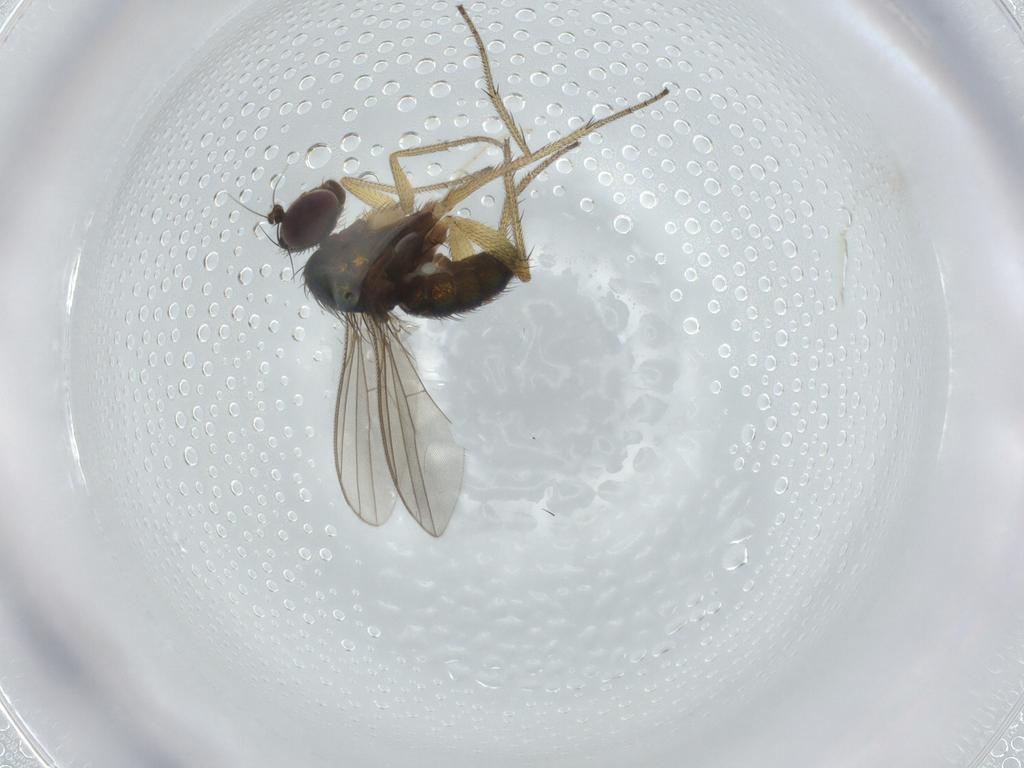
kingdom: Animalia
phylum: Arthropoda
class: Insecta
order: Diptera
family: Dolichopodidae
